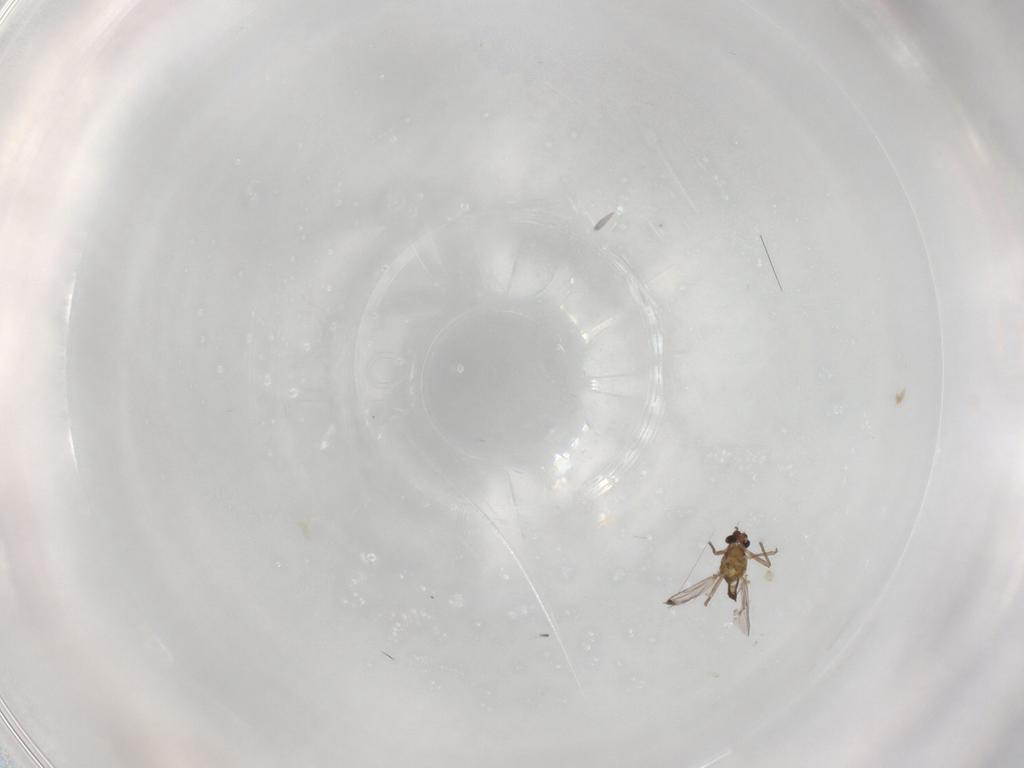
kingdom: Animalia
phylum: Arthropoda
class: Insecta
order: Diptera
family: Chironomidae
